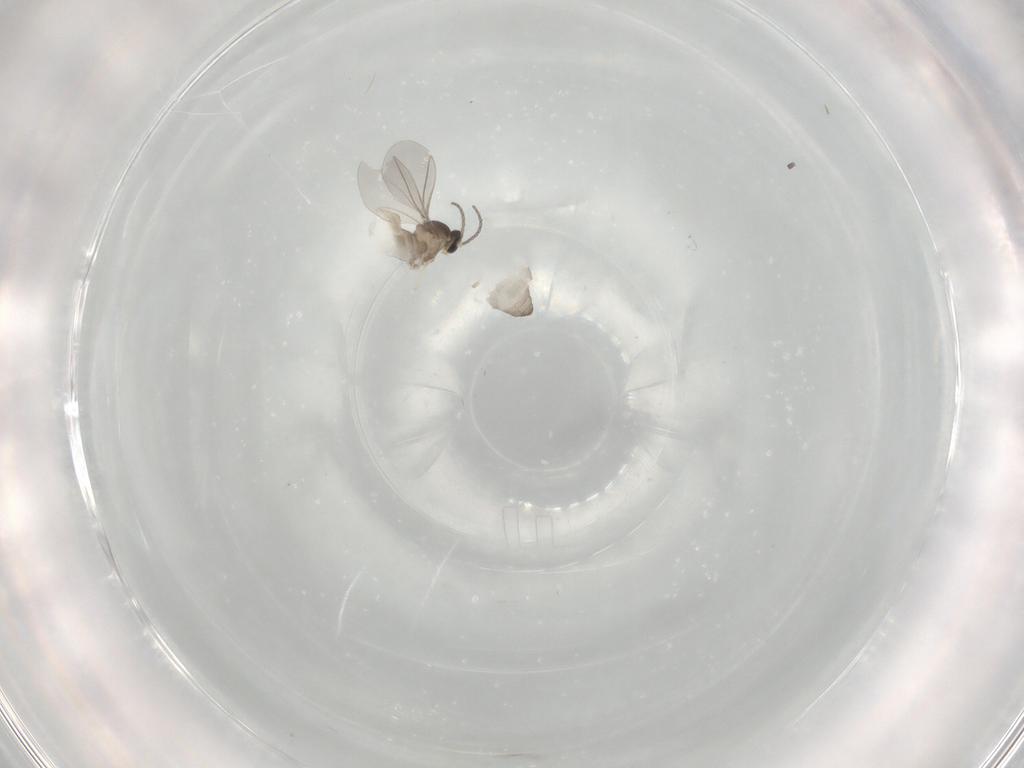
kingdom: Animalia
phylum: Arthropoda
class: Insecta
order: Diptera
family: Cecidomyiidae
